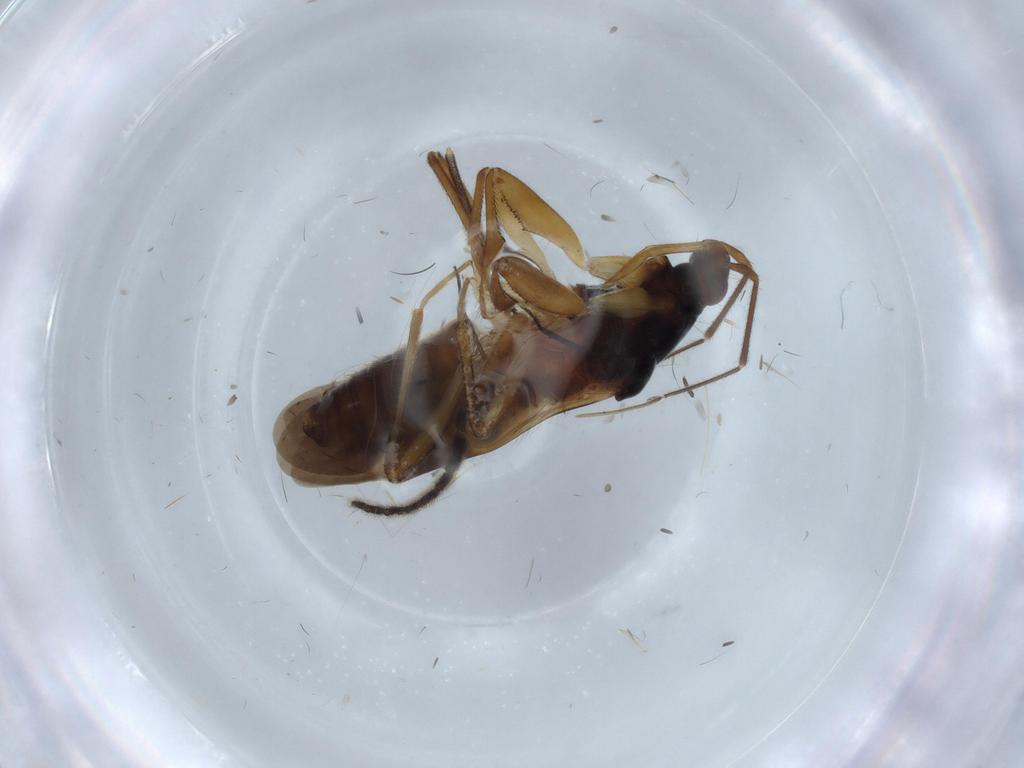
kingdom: Animalia
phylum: Arthropoda
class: Insecta
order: Hemiptera
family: Nabidae
